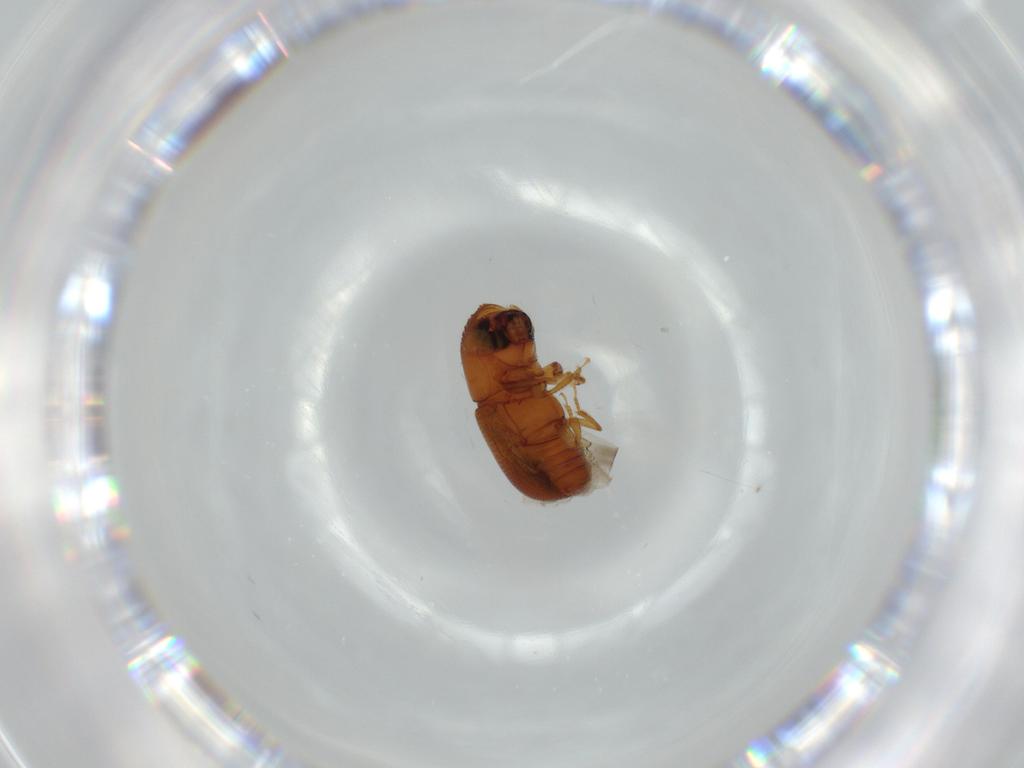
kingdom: Animalia
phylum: Arthropoda
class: Insecta
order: Coleoptera
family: Curculionidae
